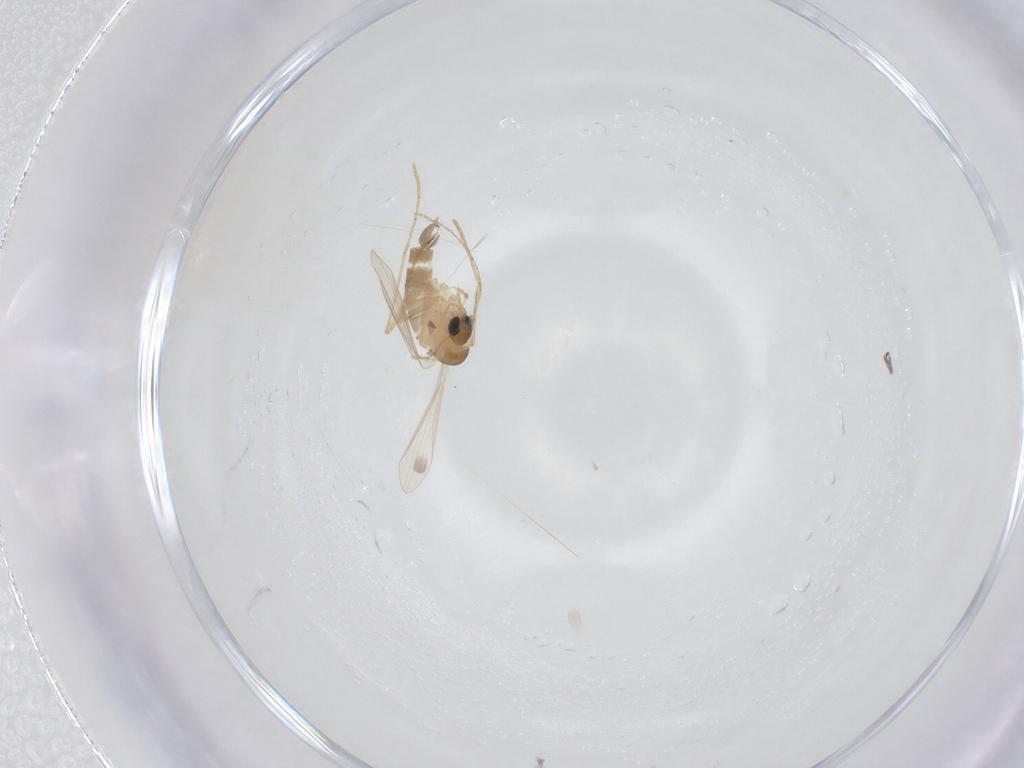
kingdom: Animalia
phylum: Arthropoda
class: Insecta
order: Diptera
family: Psychodidae
